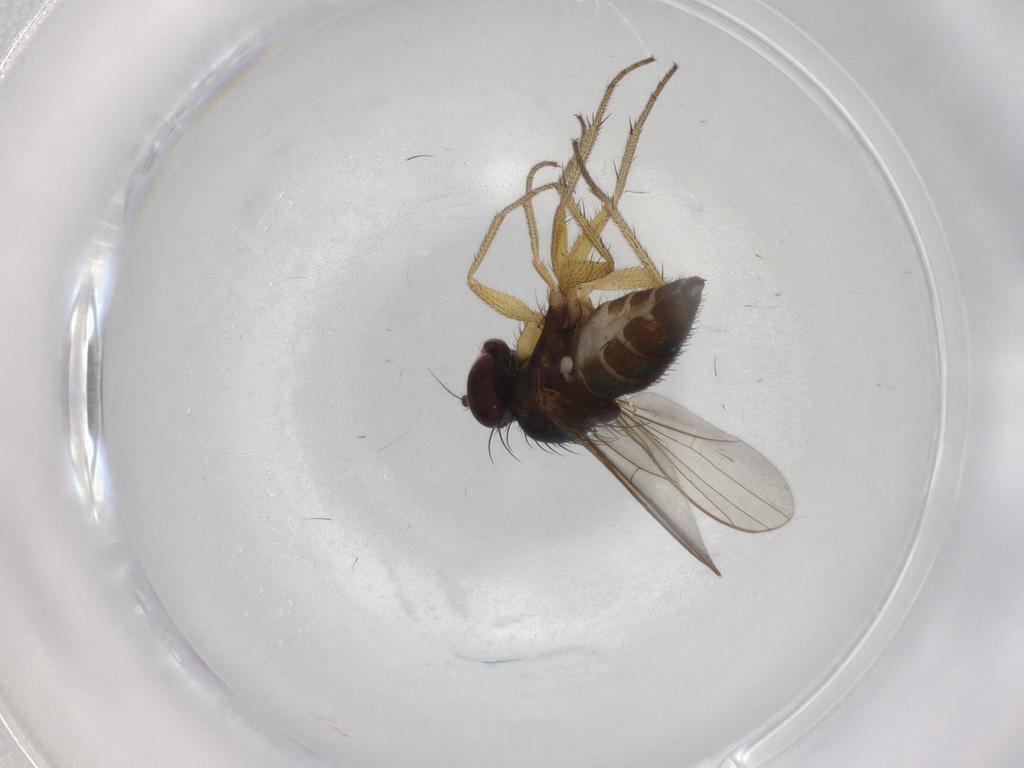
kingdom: Animalia
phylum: Arthropoda
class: Insecta
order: Diptera
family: Dolichopodidae
